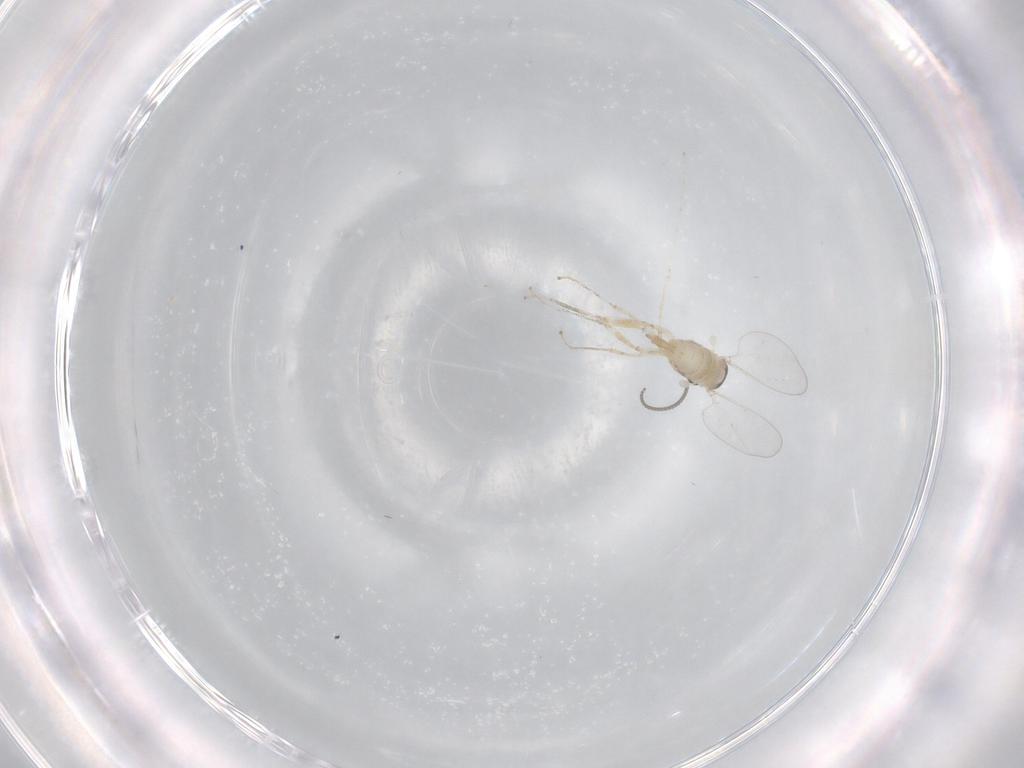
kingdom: Animalia
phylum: Arthropoda
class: Insecta
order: Diptera
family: Cecidomyiidae
